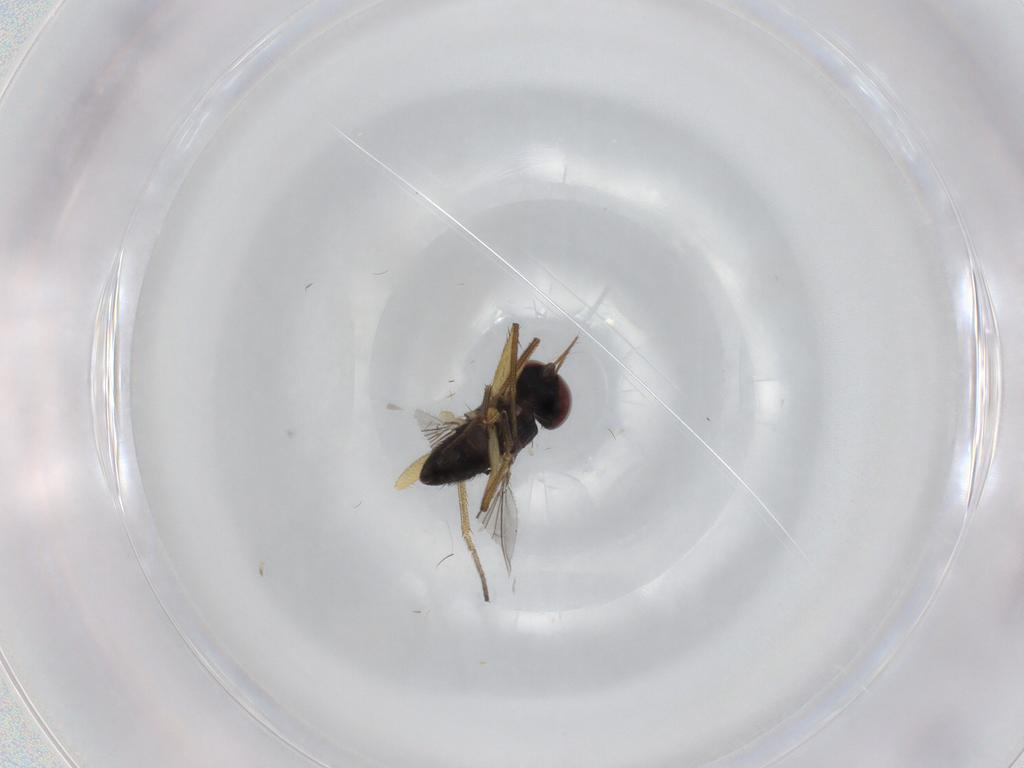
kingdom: Animalia
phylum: Arthropoda
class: Insecta
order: Diptera
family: Dolichopodidae
